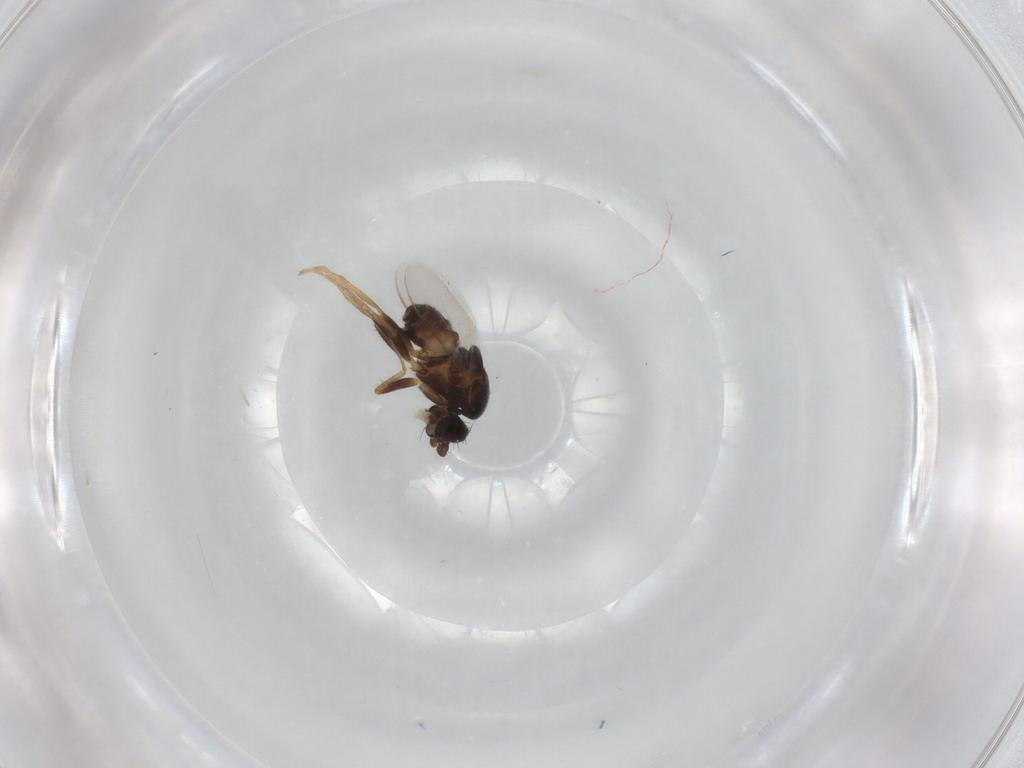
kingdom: Animalia
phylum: Arthropoda
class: Insecta
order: Diptera
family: Sphaeroceridae
